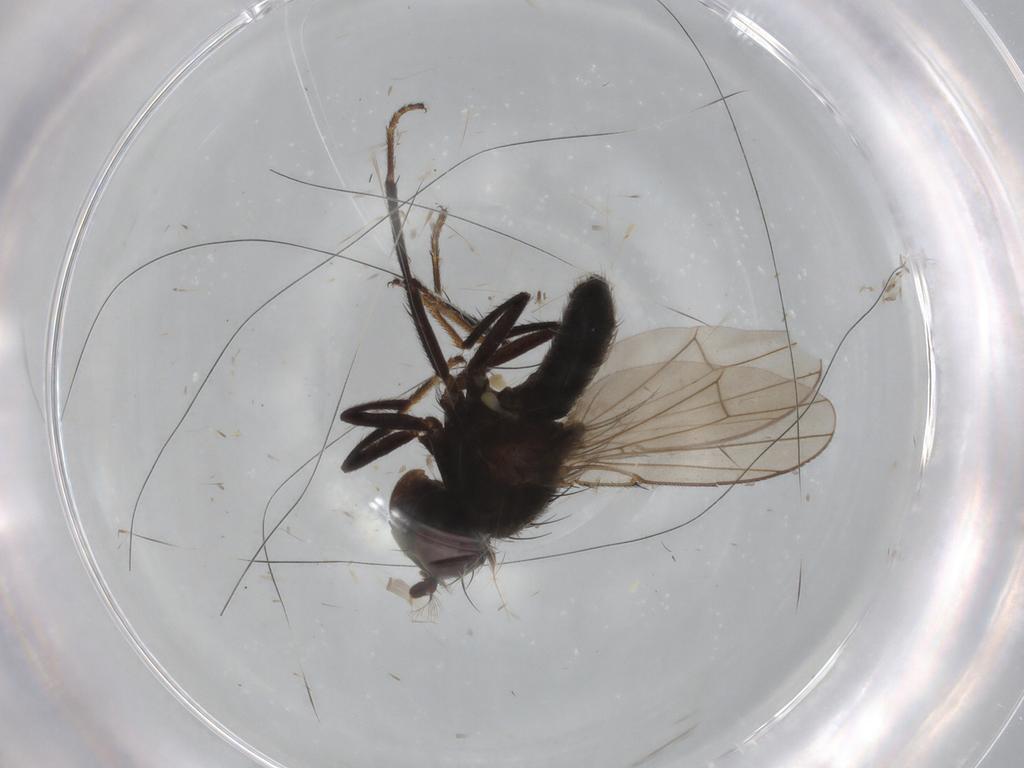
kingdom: Animalia
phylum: Arthropoda
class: Insecta
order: Diptera
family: Ephydridae
